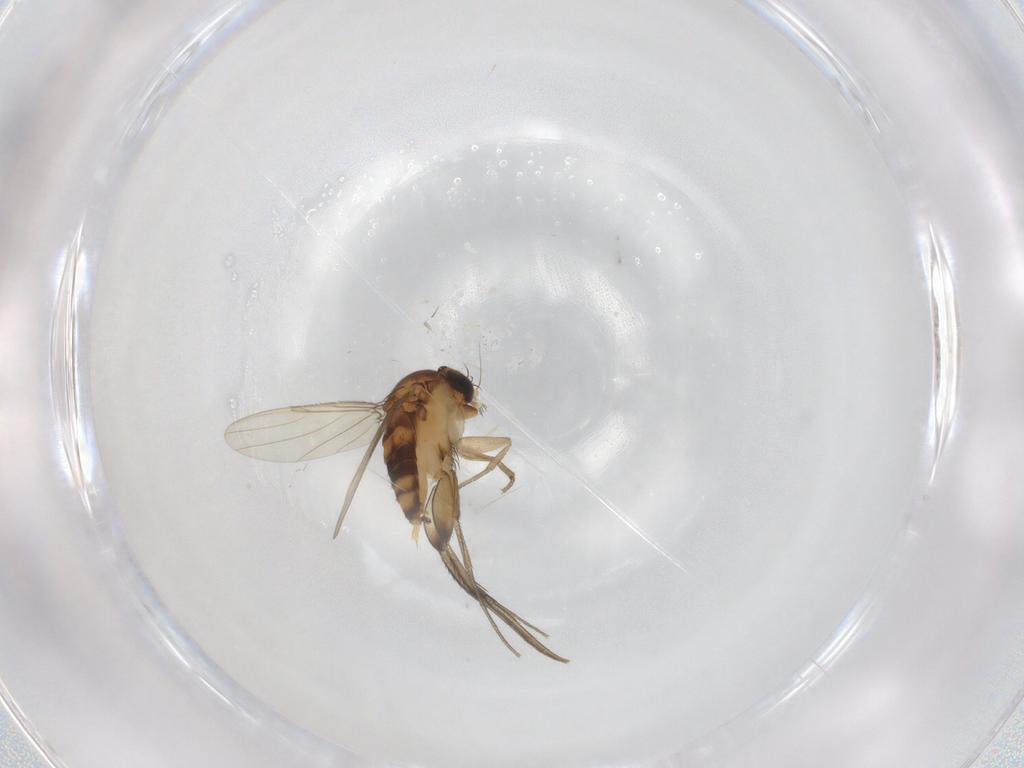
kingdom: Animalia
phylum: Arthropoda
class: Insecta
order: Diptera
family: Phoridae
